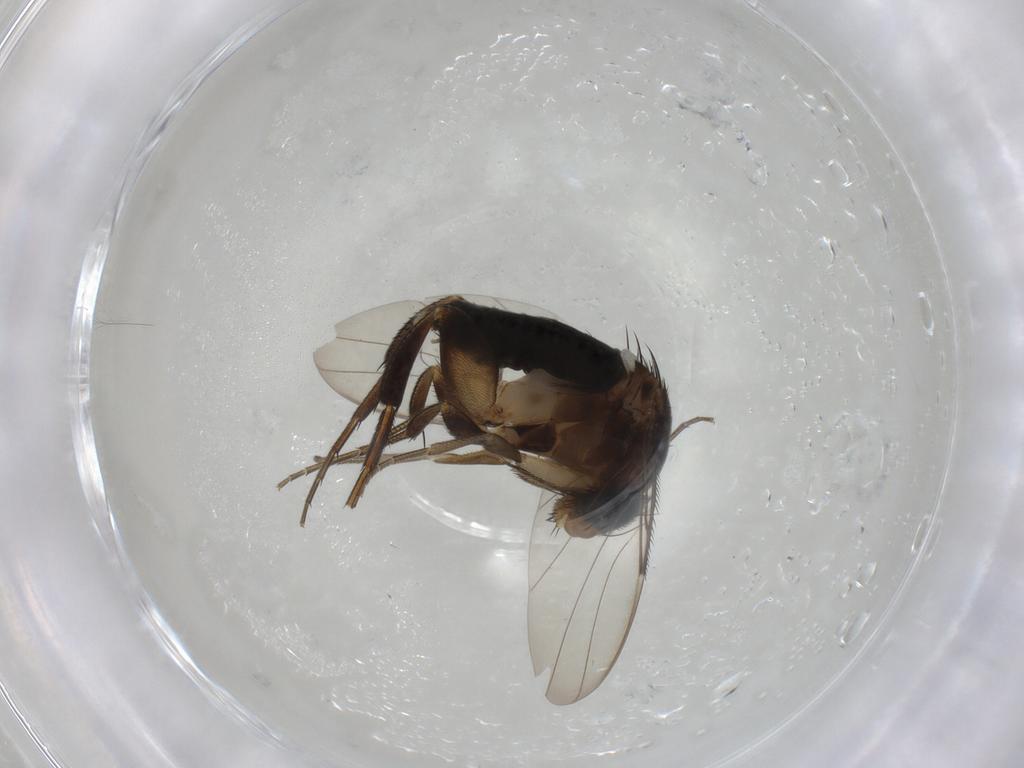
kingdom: Animalia
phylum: Arthropoda
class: Insecta
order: Diptera
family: Phoridae
